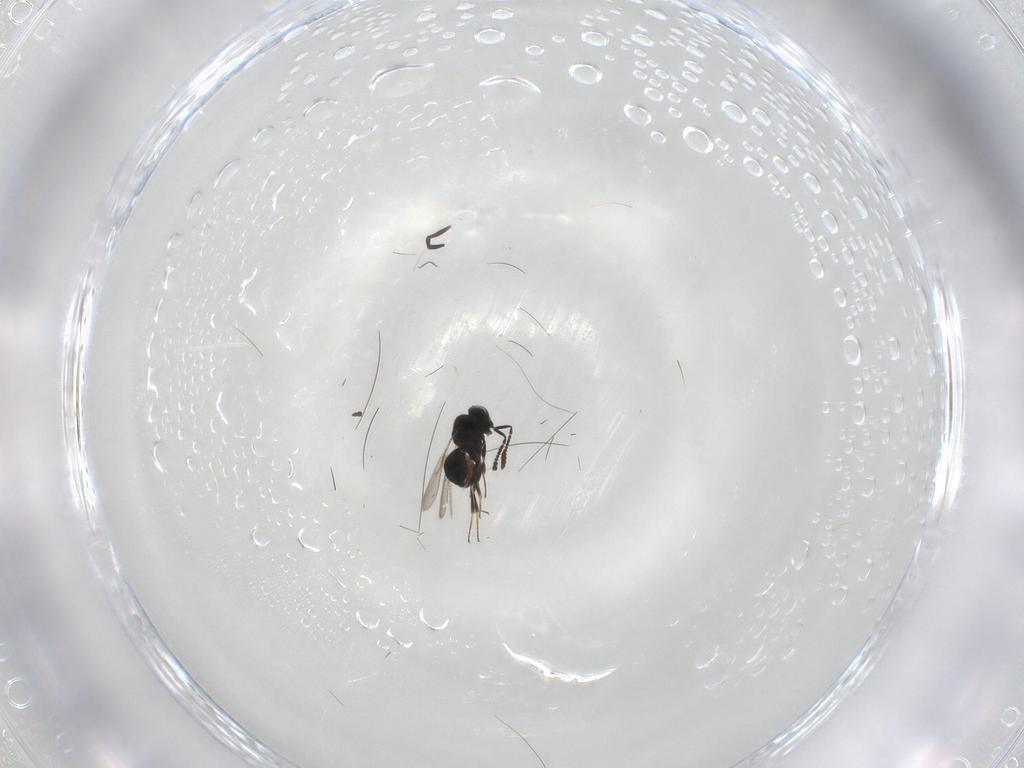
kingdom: Animalia
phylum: Arthropoda
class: Insecta
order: Hymenoptera
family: Scelionidae
